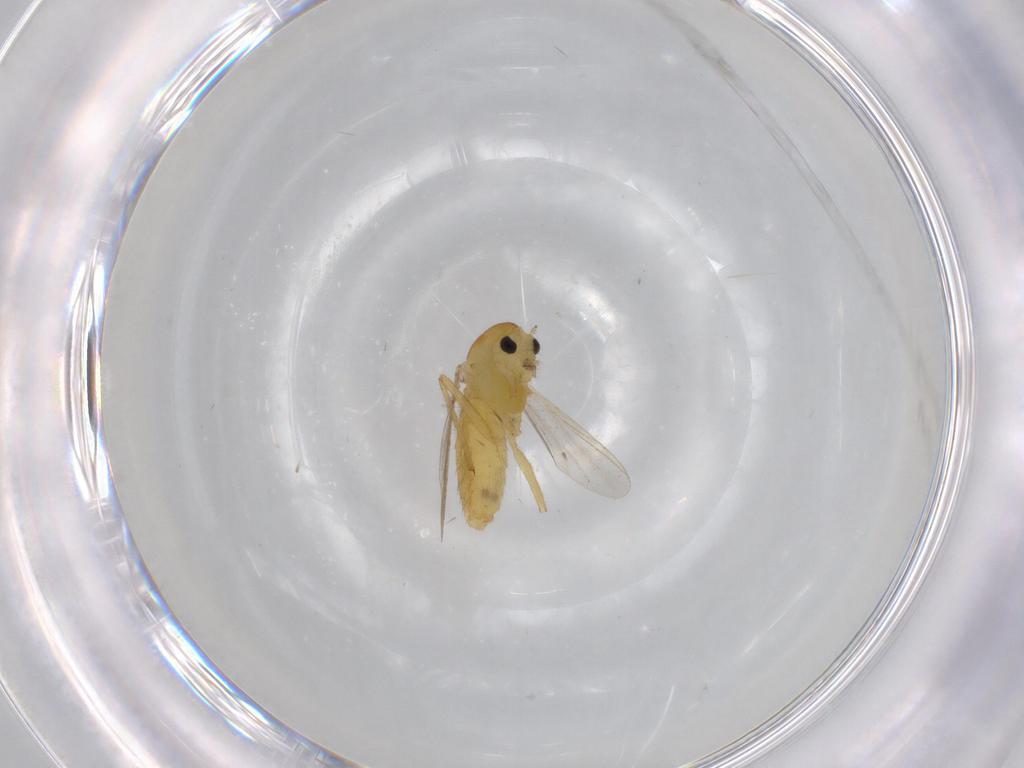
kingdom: Animalia
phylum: Arthropoda
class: Insecta
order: Diptera
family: Chironomidae
